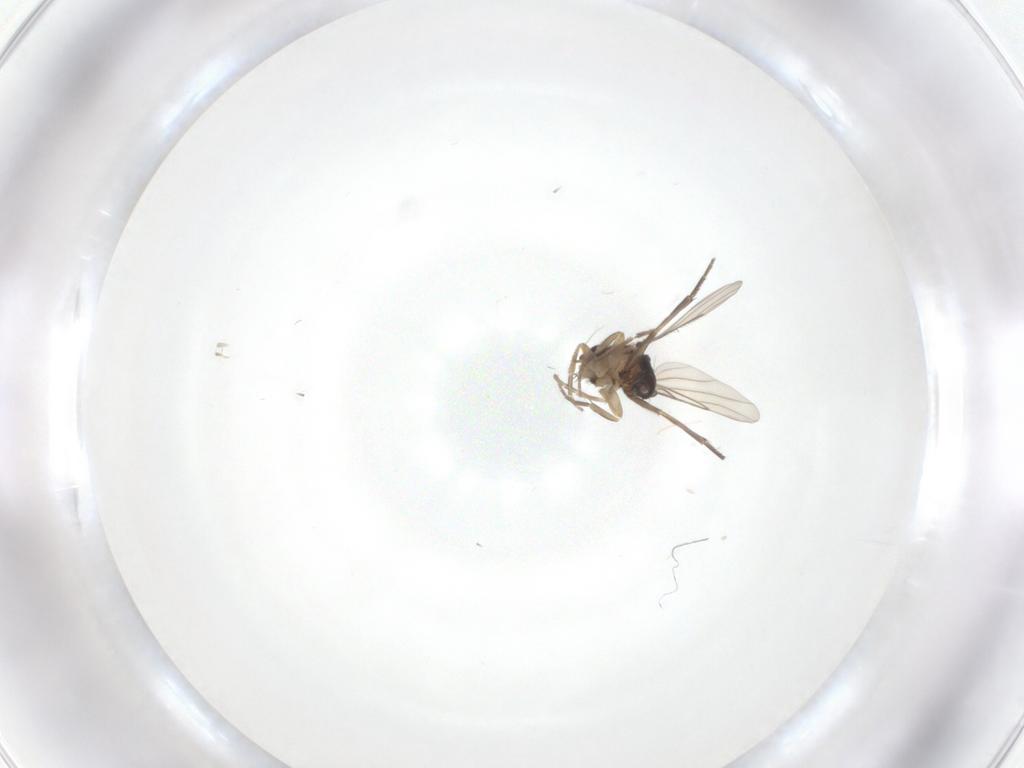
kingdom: Animalia
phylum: Arthropoda
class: Insecta
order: Diptera
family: Phoridae
